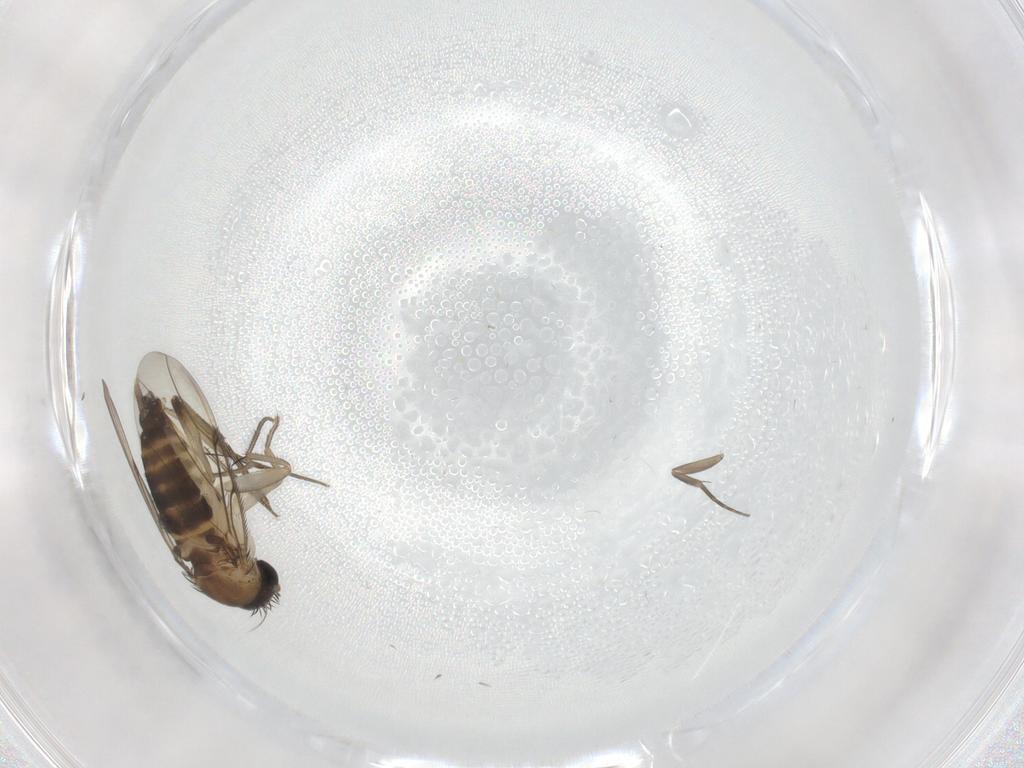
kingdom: Animalia
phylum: Arthropoda
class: Insecta
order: Diptera
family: Phoridae
